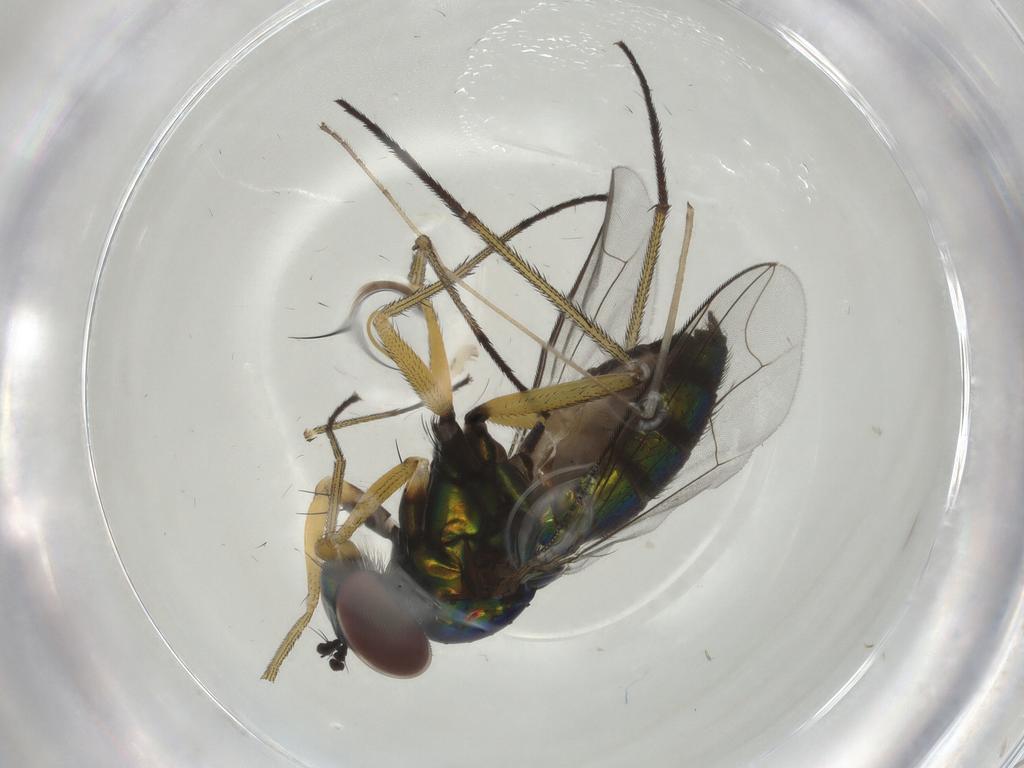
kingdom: Animalia
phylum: Arthropoda
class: Insecta
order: Diptera
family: Dolichopodidae
